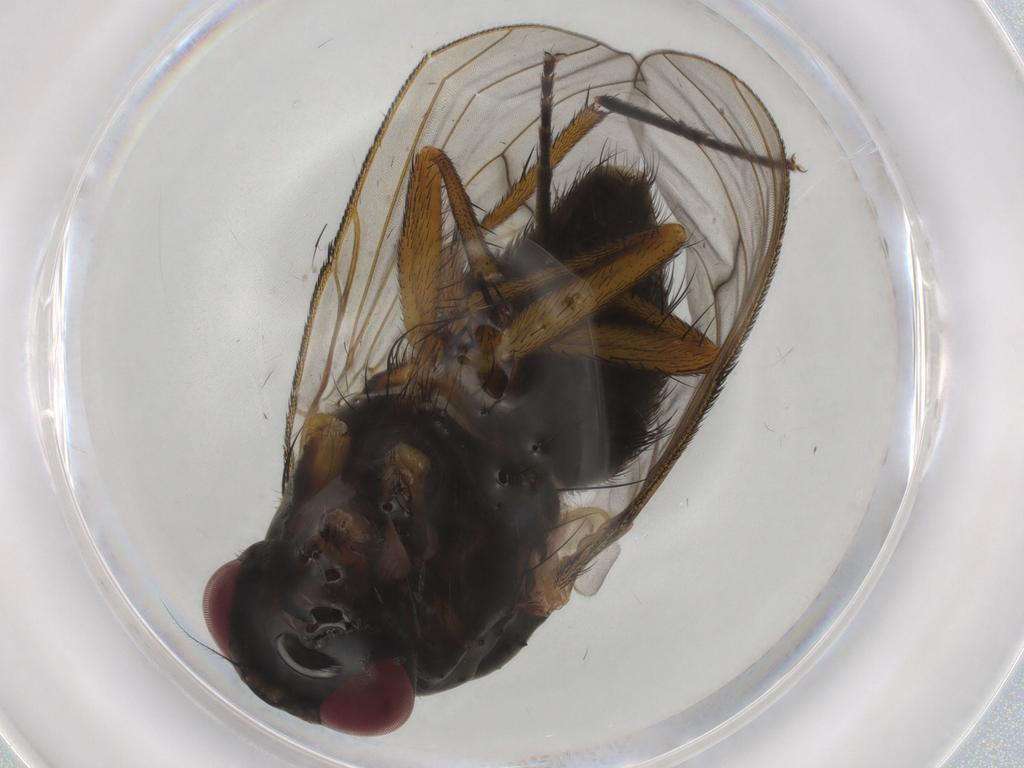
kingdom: Animalia
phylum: Arthropoda
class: Insecta
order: Diptera
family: Muscidae
